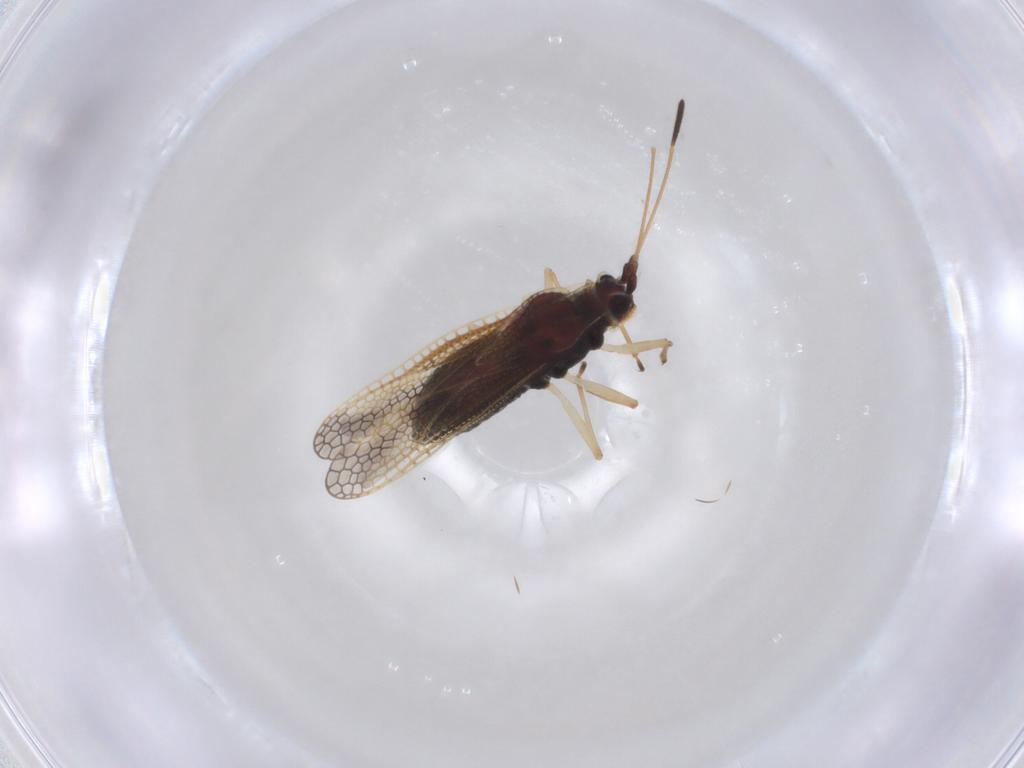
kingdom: Animalia
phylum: Arthropoda
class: Insecta
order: Hemiptera
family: Tingidae
